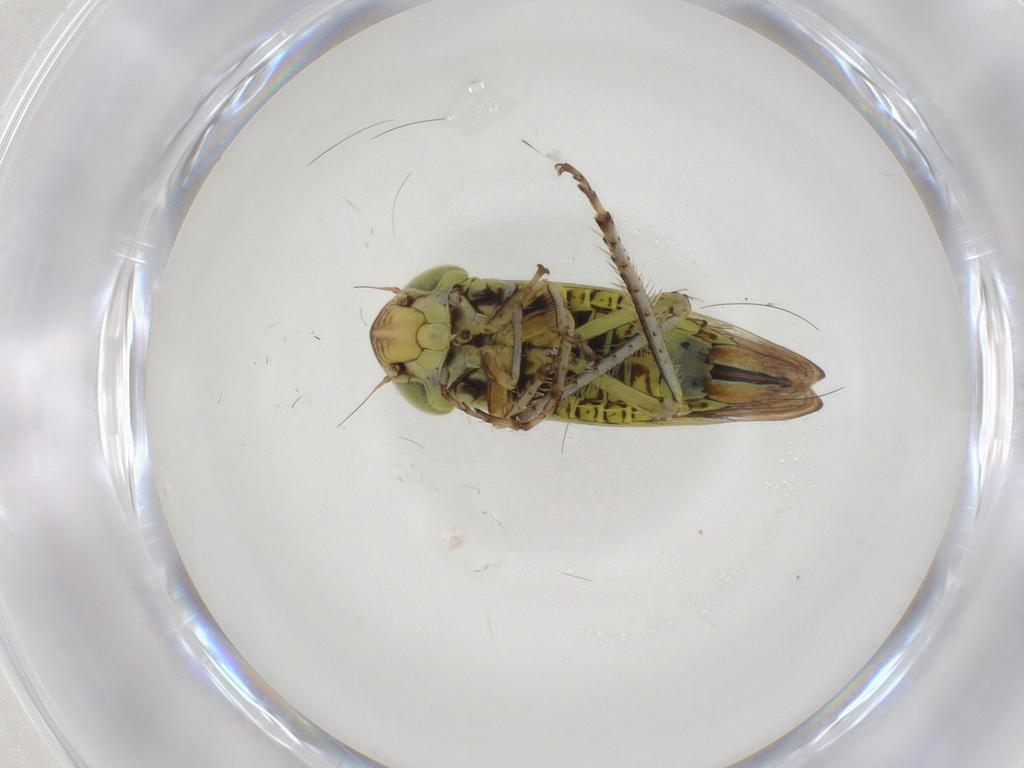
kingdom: Animalia
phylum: Arthropoda
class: Insecta
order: Hemiptera
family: Cicadellidae
